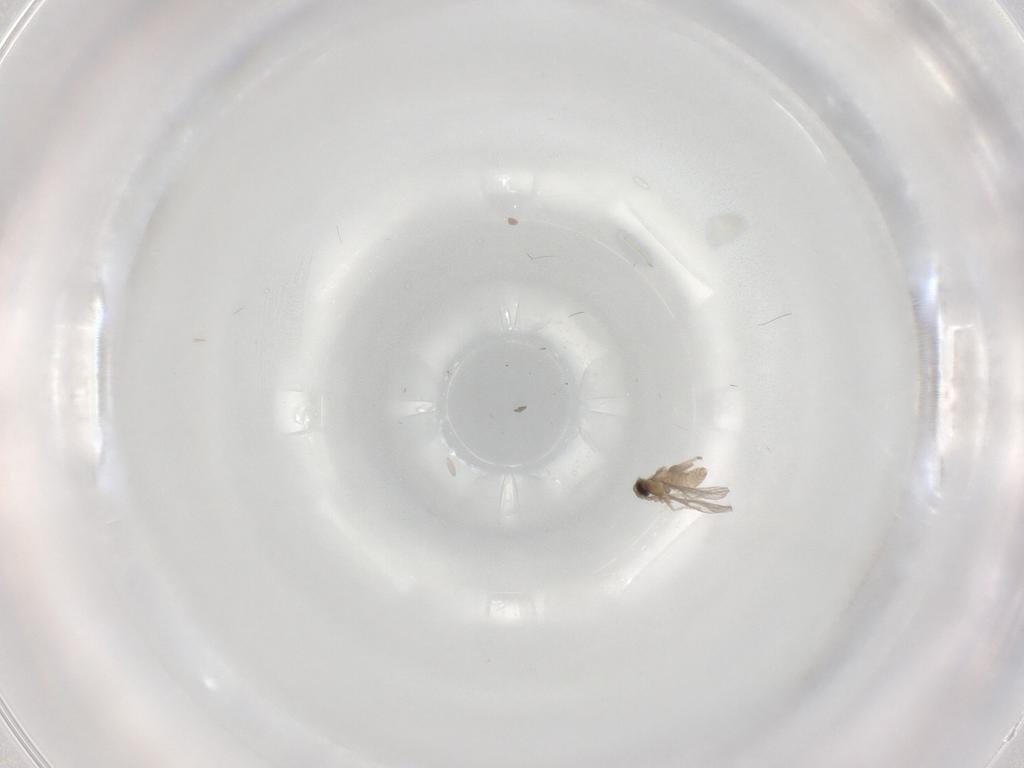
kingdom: Animalia
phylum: Arthropoda
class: Insecta
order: Diptera
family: Cecidomyiidae
